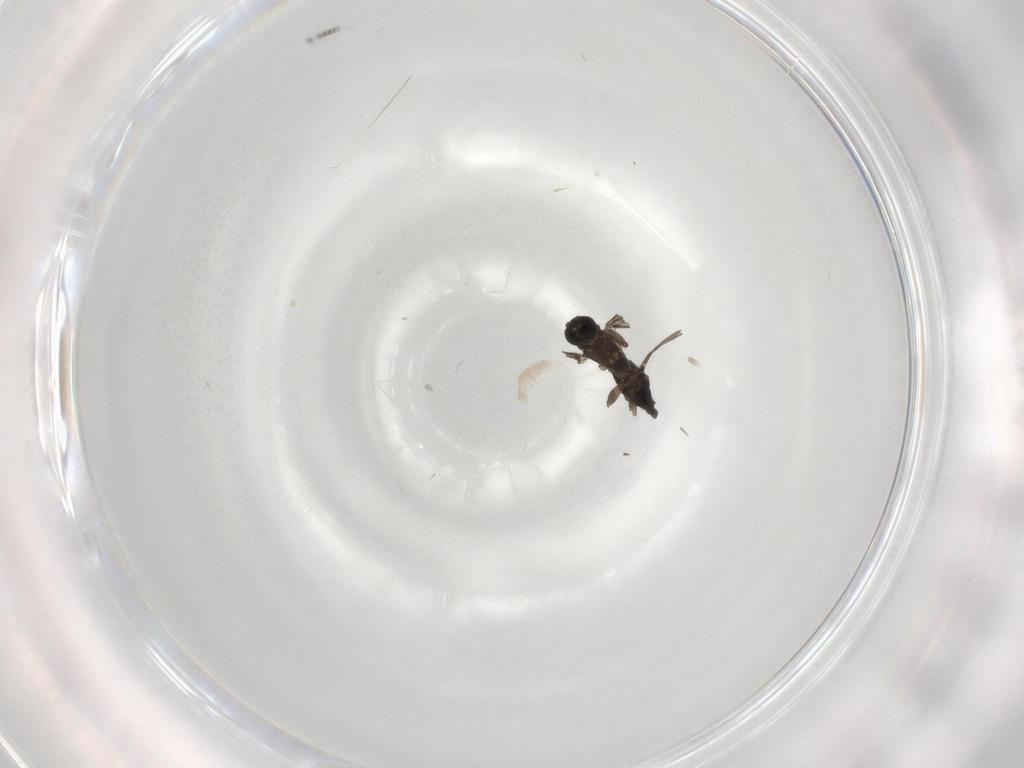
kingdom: Animalia
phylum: Arthropoda
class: Insecta
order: Diptera
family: Sciaridae
